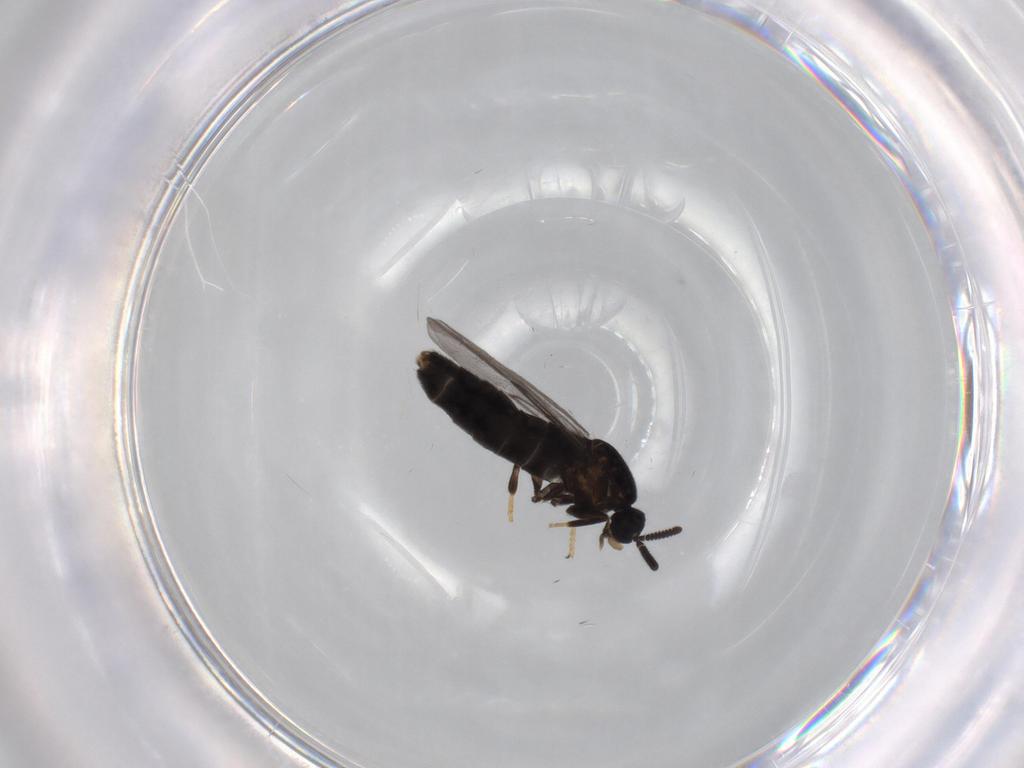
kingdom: Animalia
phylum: Arthropoda
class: Insecta
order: Diptera
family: Scatopsidae
